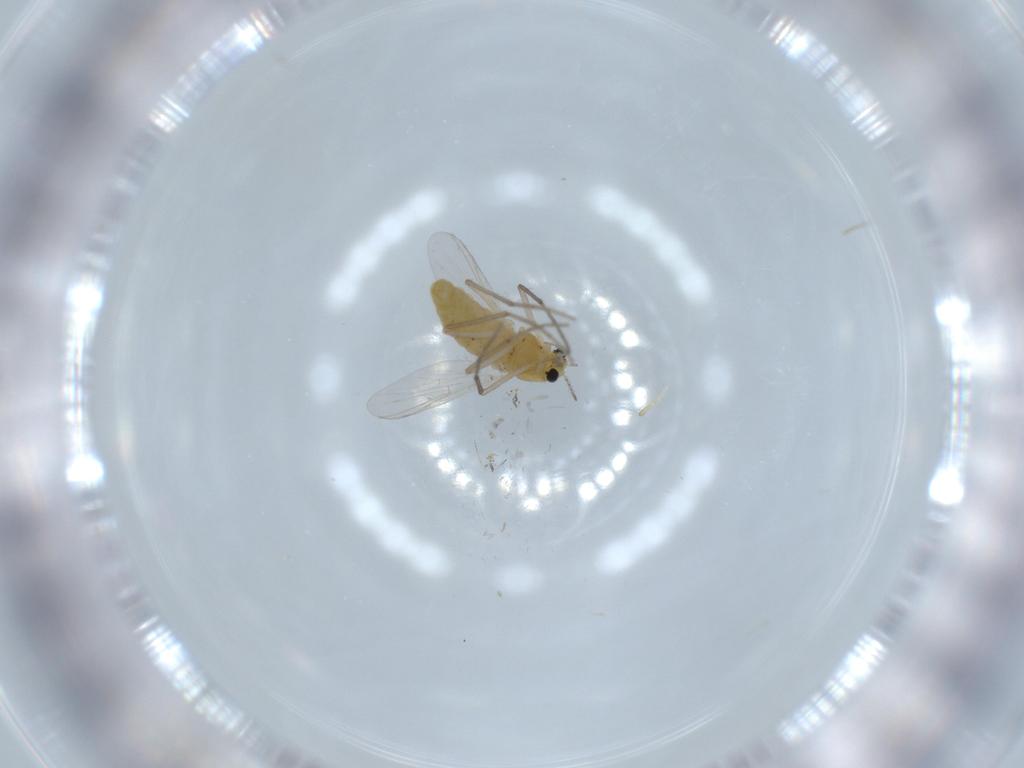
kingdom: Animalia
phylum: Arthropoda
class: Insecta
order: Diptera
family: Chironomidae
